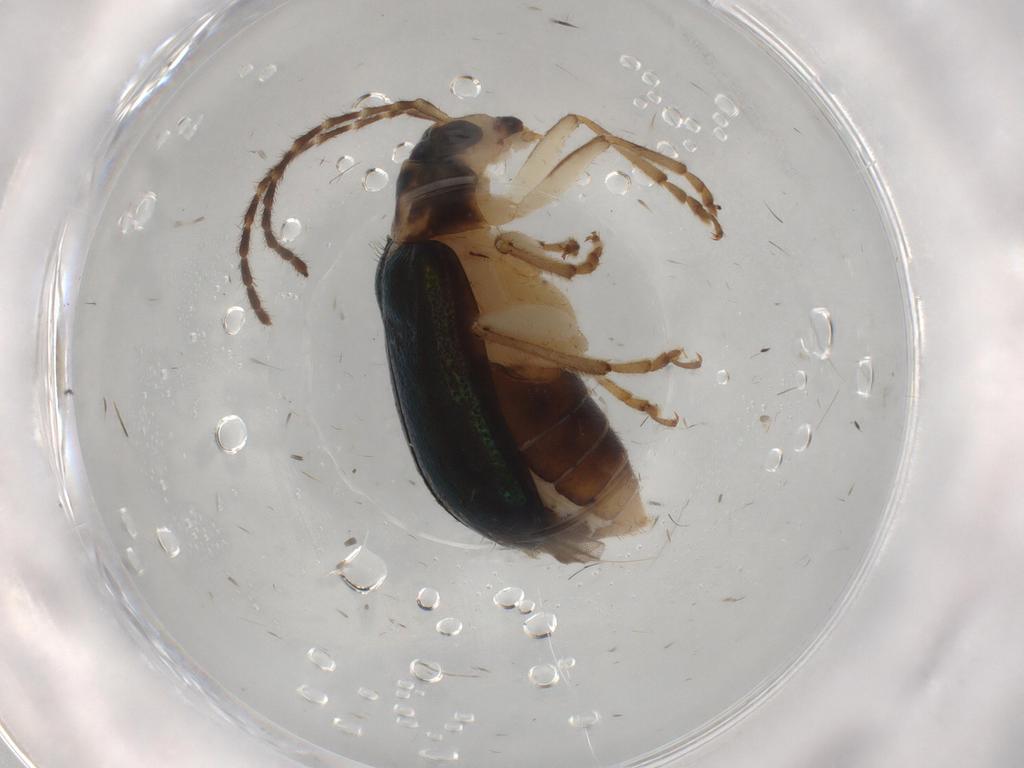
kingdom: Animalia
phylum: Arthropoda
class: Insecta
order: Coleoptera
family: Chrysomelidae
